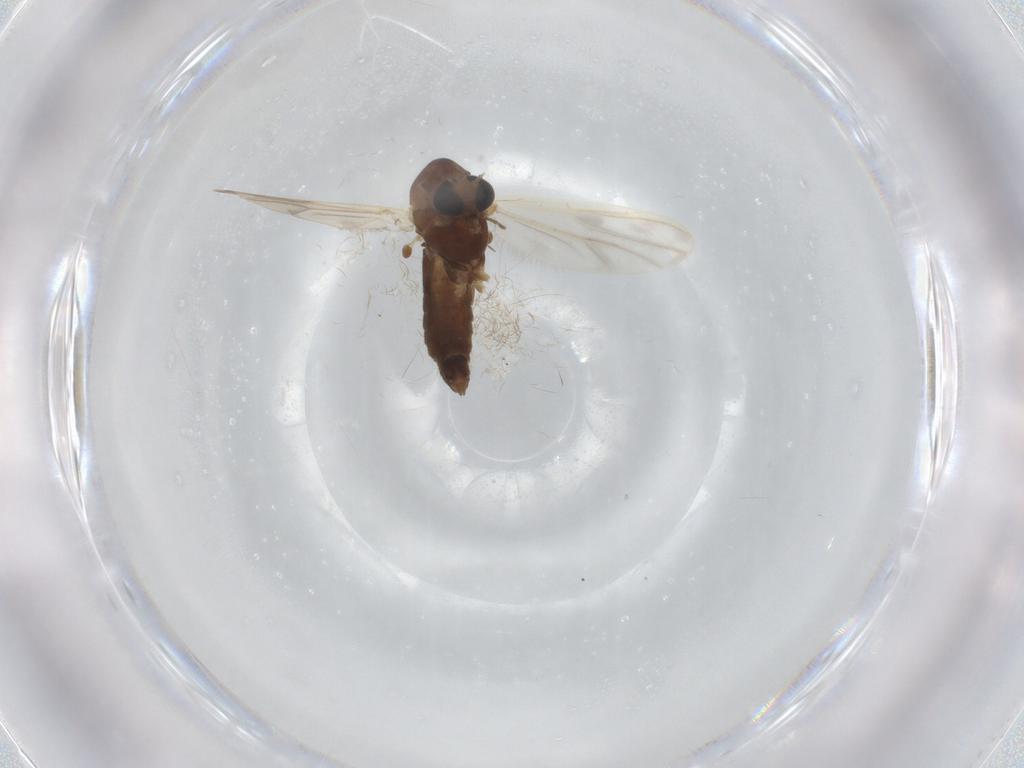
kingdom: Animalia
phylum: Arthropoda
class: Insecta
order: Diptera
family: Chironomidae
